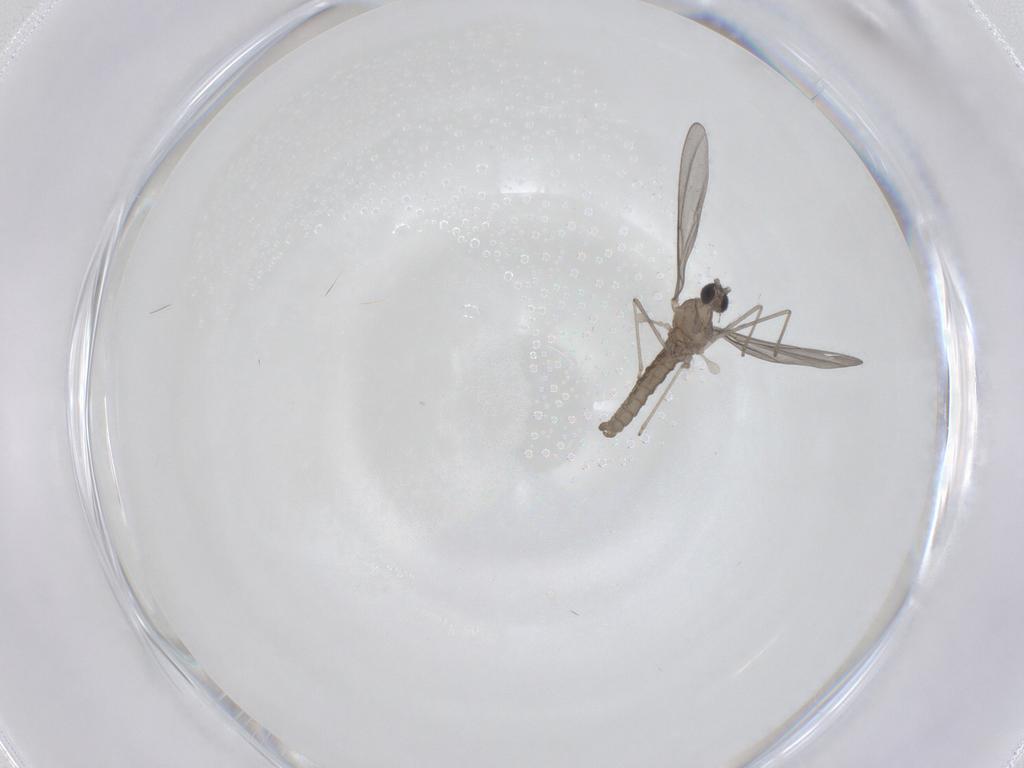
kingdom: Animalia
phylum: Arthropoda
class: Insecta
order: Diptera
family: Cecidomyiidae
